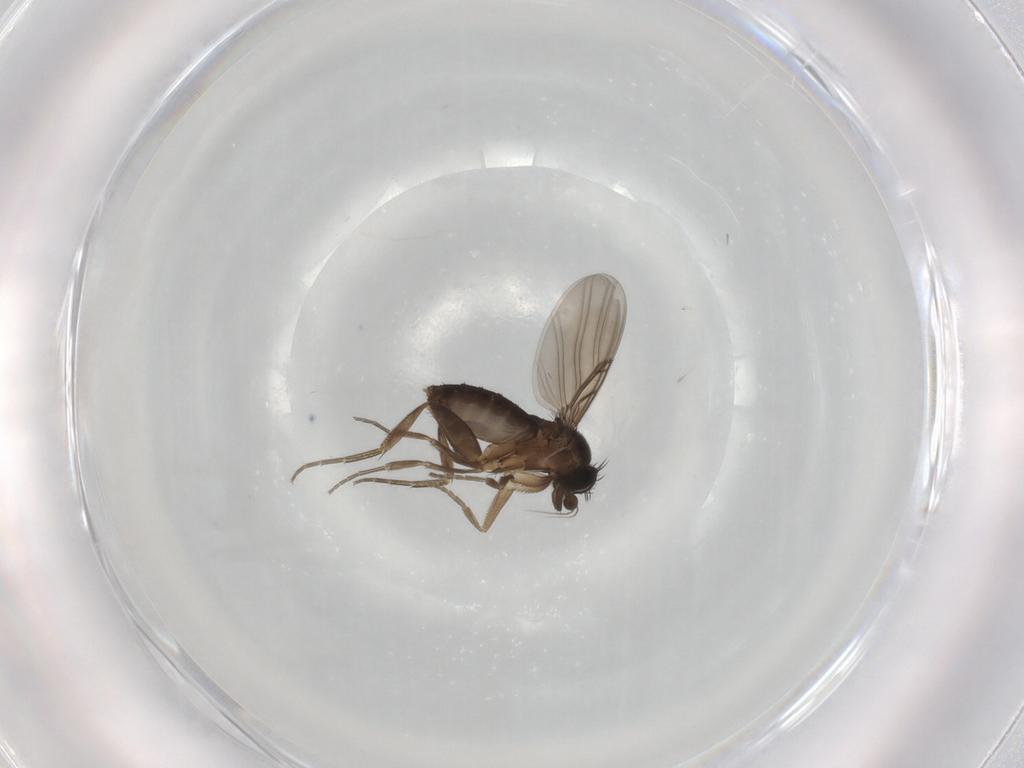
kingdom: Animalia
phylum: Arthropoda
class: Insecta
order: Diptera
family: Phoridae
